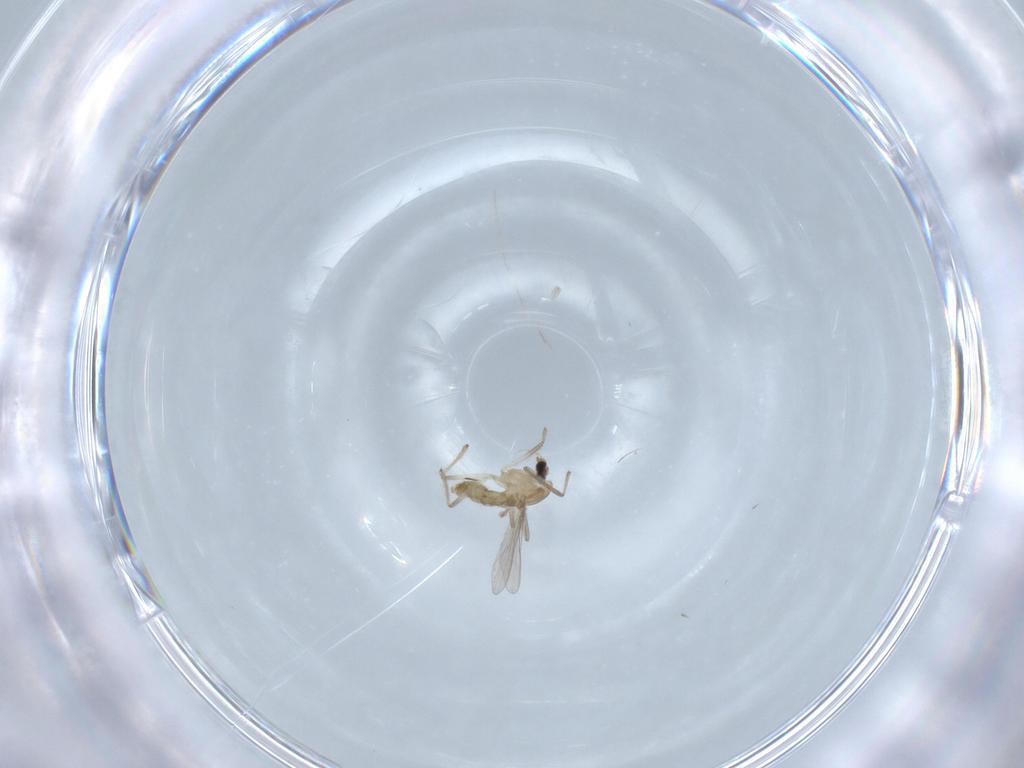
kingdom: Animalia
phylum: Arthropoda
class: Insecta
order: Diptera
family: Chironomidae
